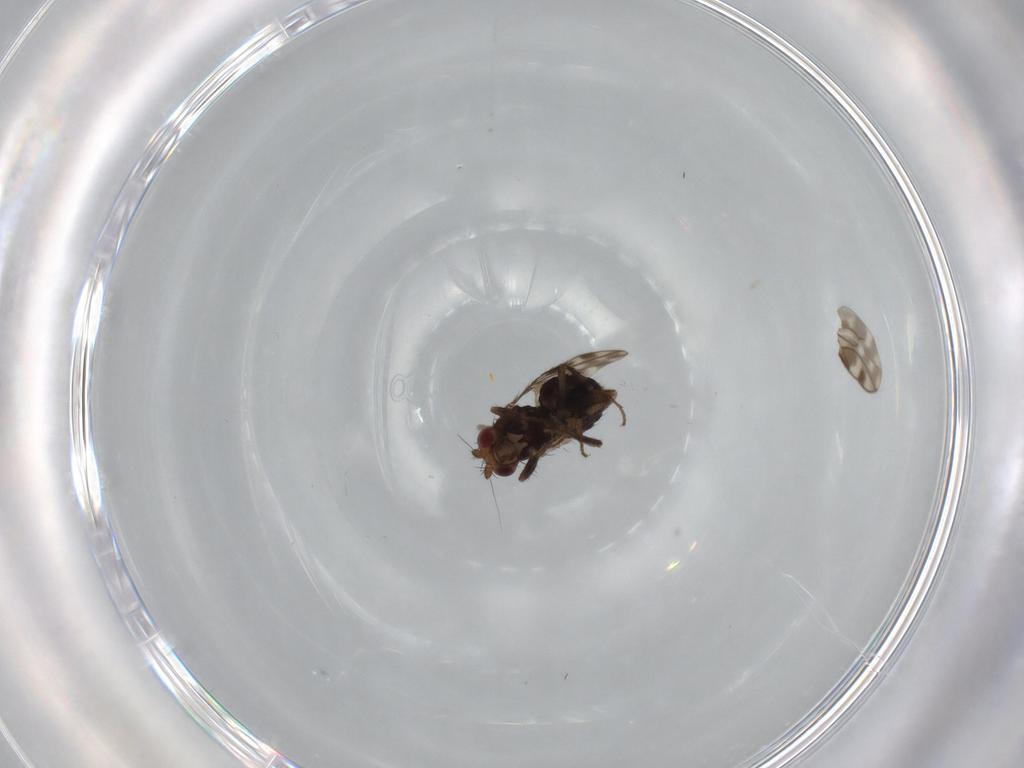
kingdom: Animalia
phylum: Arthropoda
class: Insecta
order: Diptera
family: Sphaeroceridae
